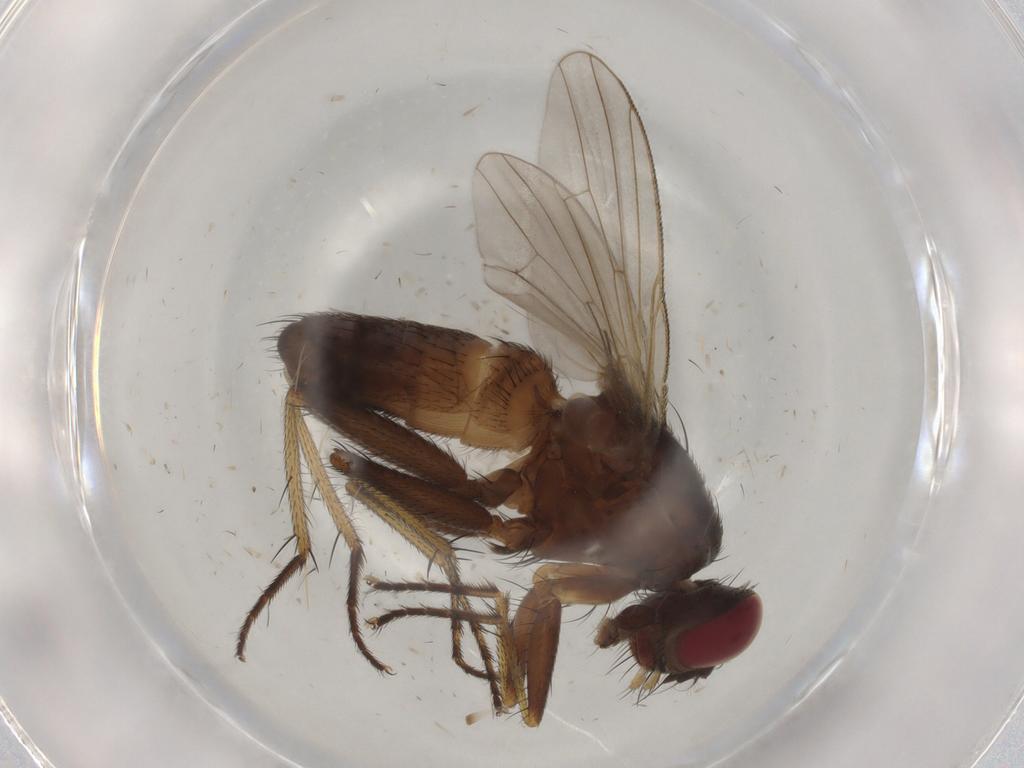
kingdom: Animalia
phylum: Arthropoda
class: Insecta
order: Diptera
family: Muscidae
